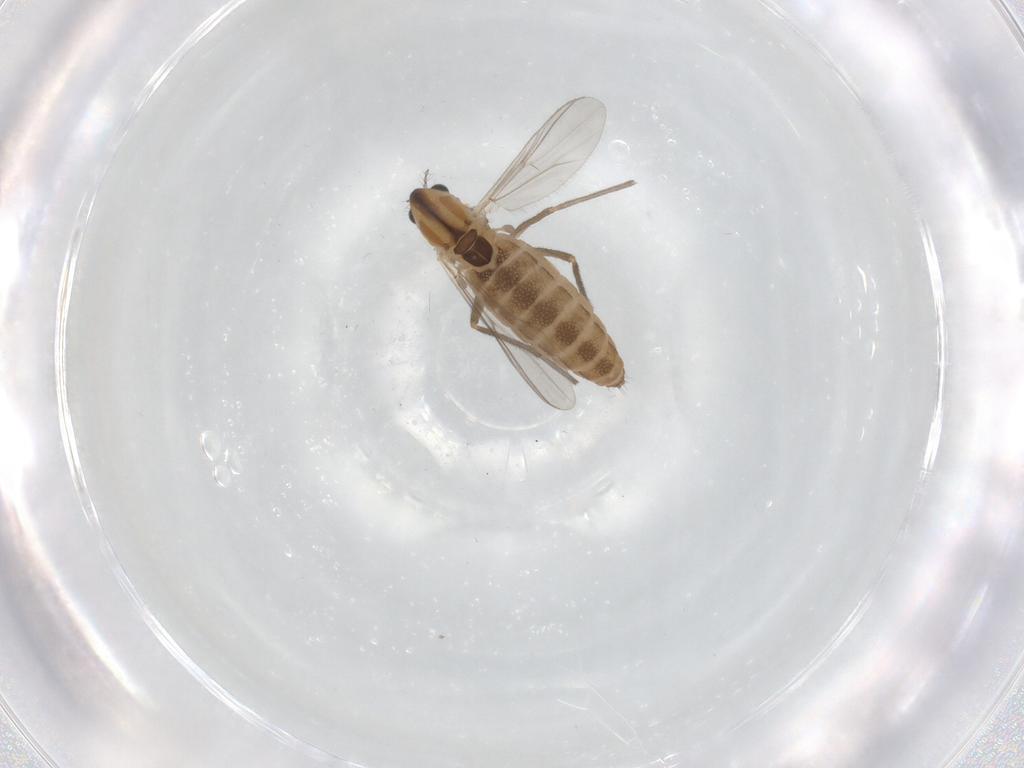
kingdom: Animalia
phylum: Arthropoda
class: Insecta
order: Diptera
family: Chironomidae
